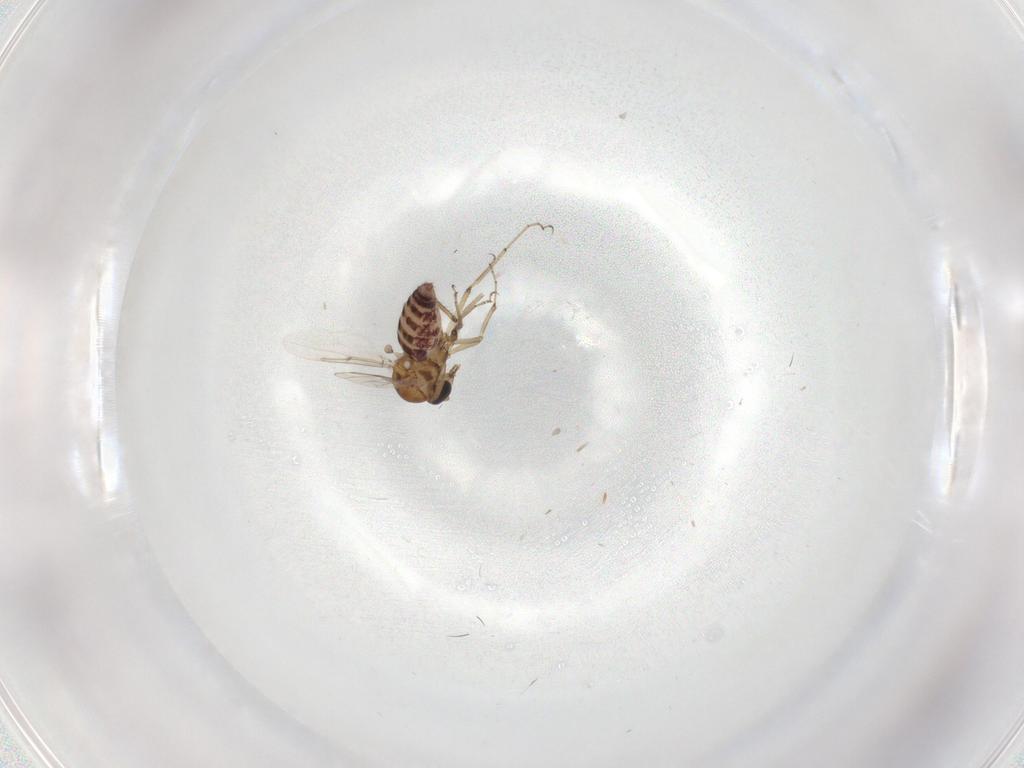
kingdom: Animalia
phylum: Arthropoda
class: Insecta
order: Diptera
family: Ceratopogonidae
